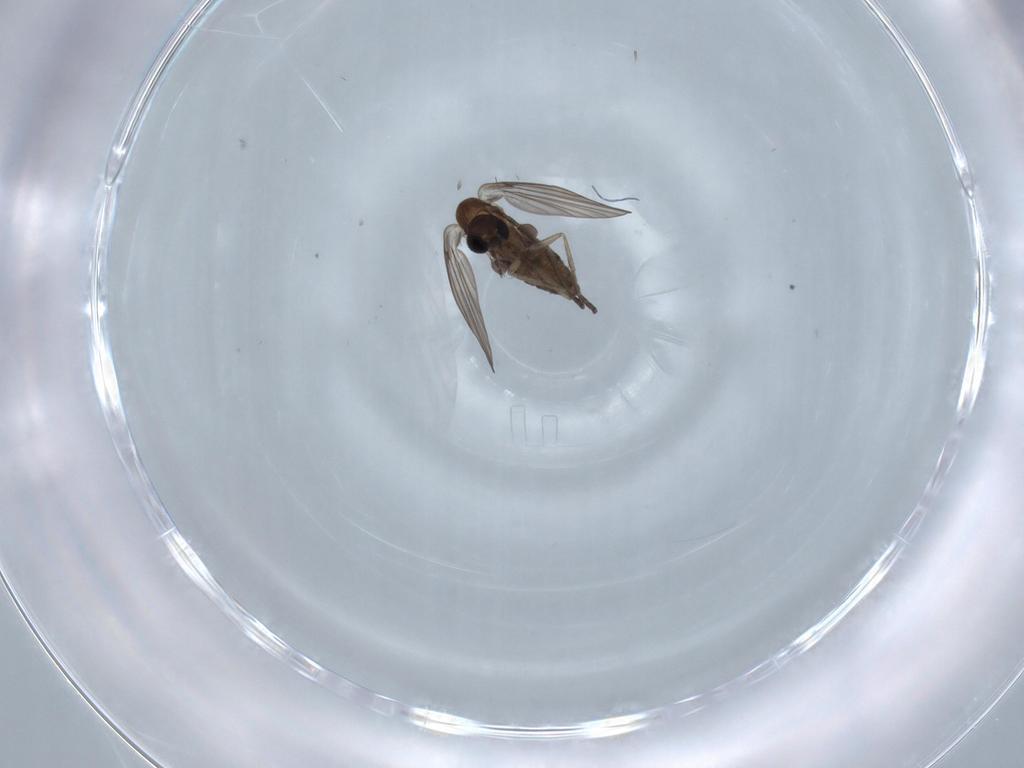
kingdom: Animalia
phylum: Arthropoda
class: Insecta
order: Diptera
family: Psychodidae
